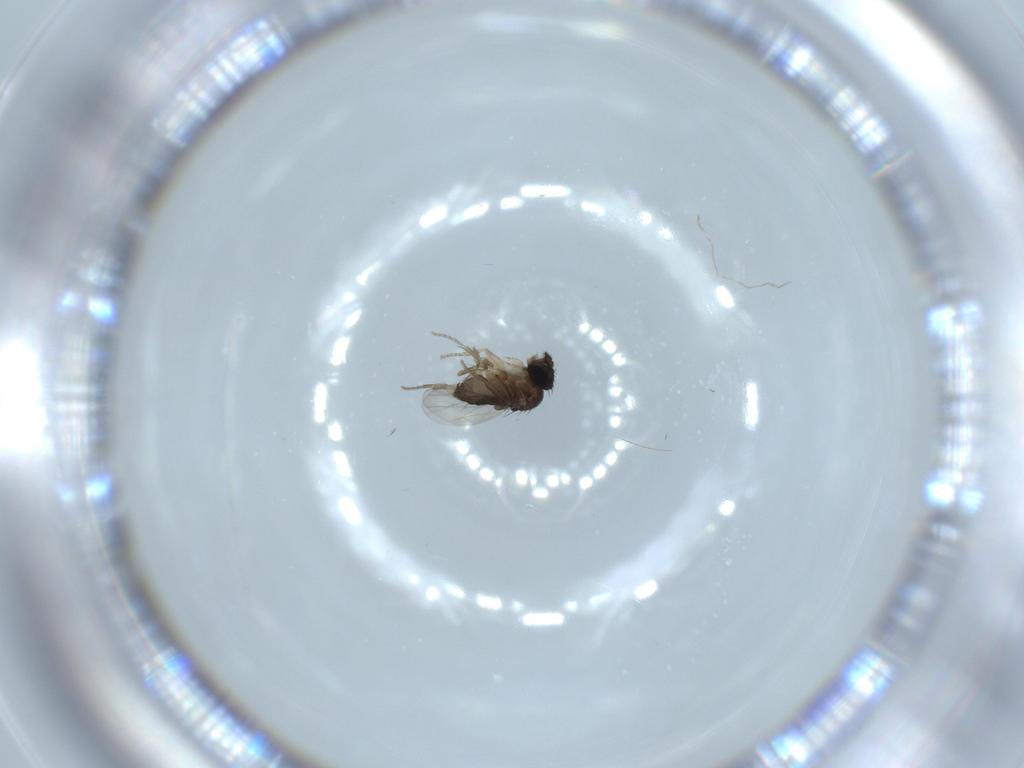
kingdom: Animalia
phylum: Arthropoda
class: Insecta
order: Diptera
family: Phoridae
